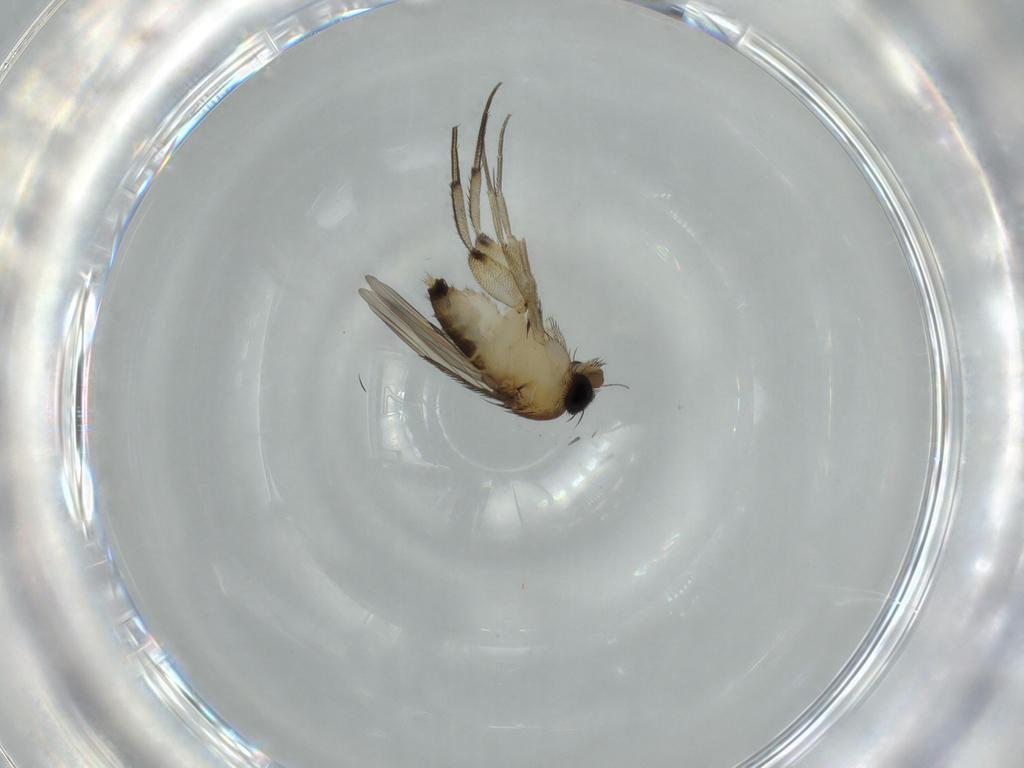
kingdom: Animalia
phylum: Arthropoda
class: Insecta
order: Diptera
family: Phoridae
